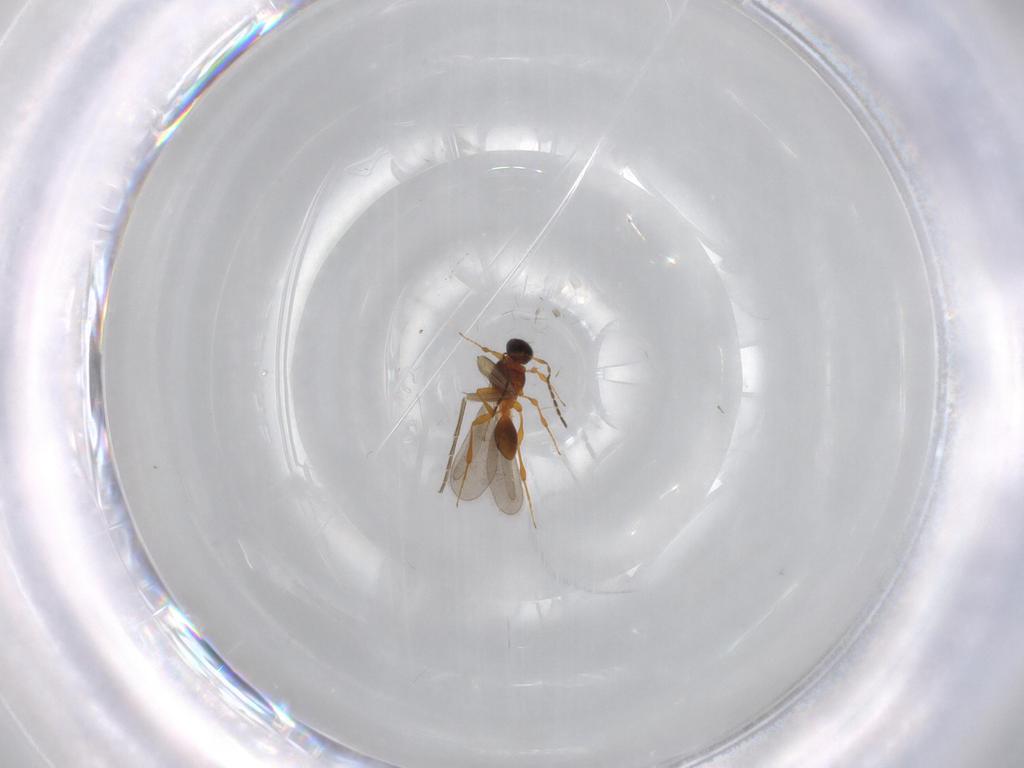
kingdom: Animalia
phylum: Arthropoda
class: Insecta
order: Hymenoptera
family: Platygastridae
